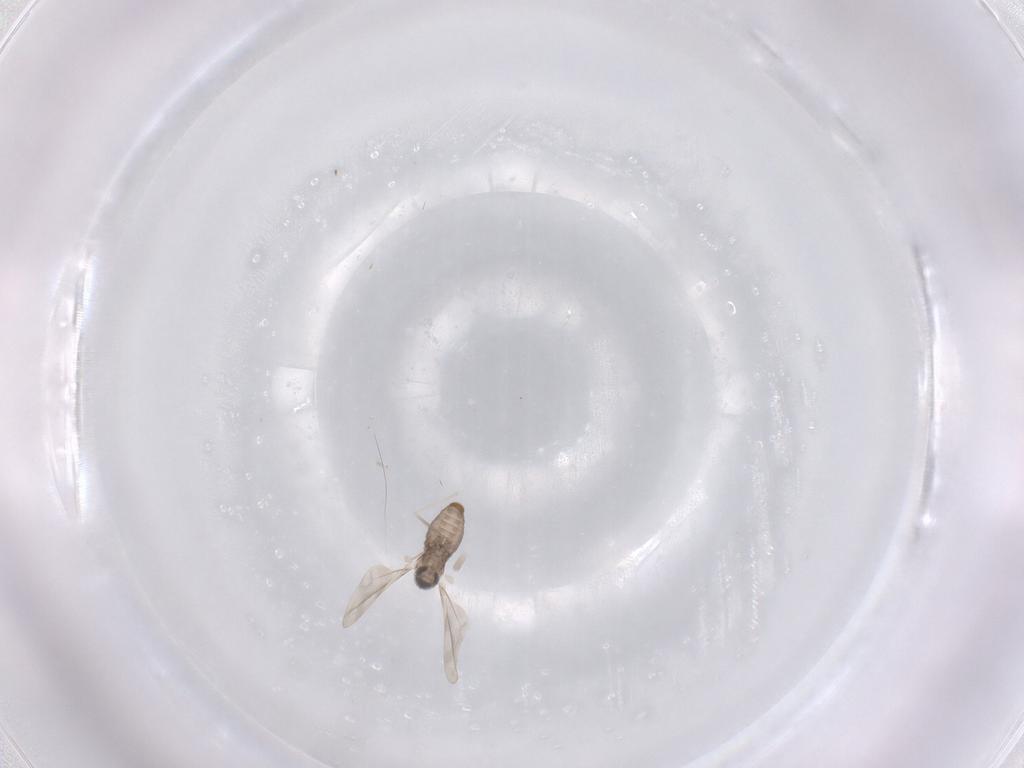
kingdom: Animalia
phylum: Arthropoda
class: Insecta
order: Diptera
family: Cecidomyiidae
